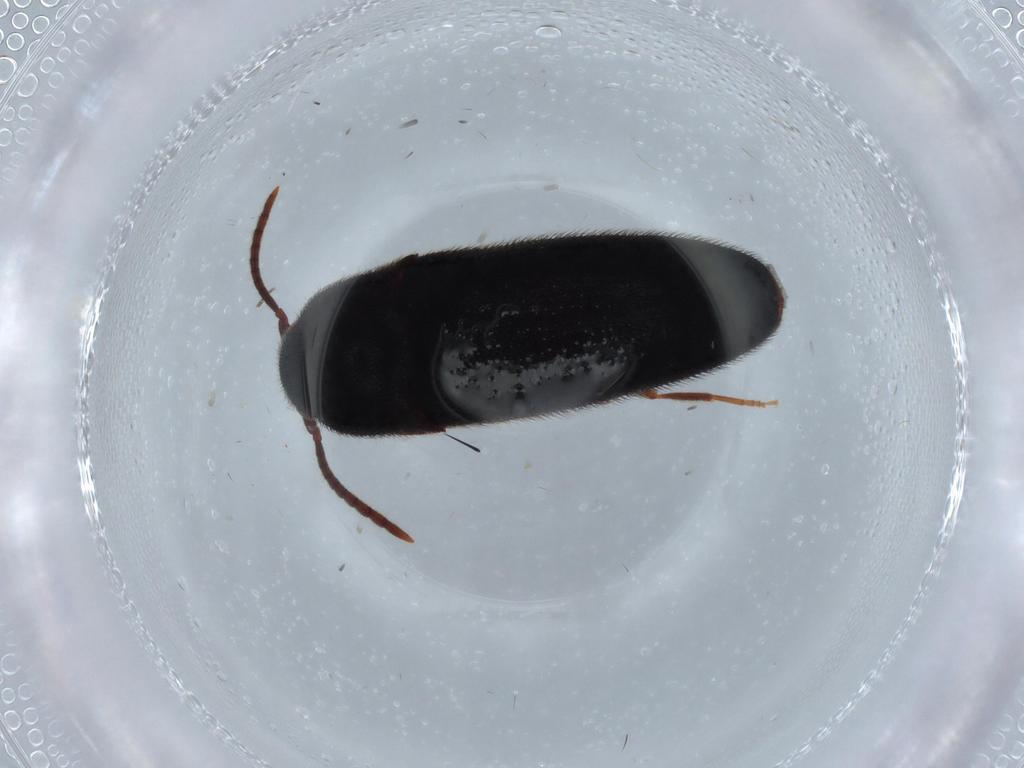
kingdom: Animalia
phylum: Arthropoda
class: Insecta
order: Coleoptera
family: Eucnemidae
